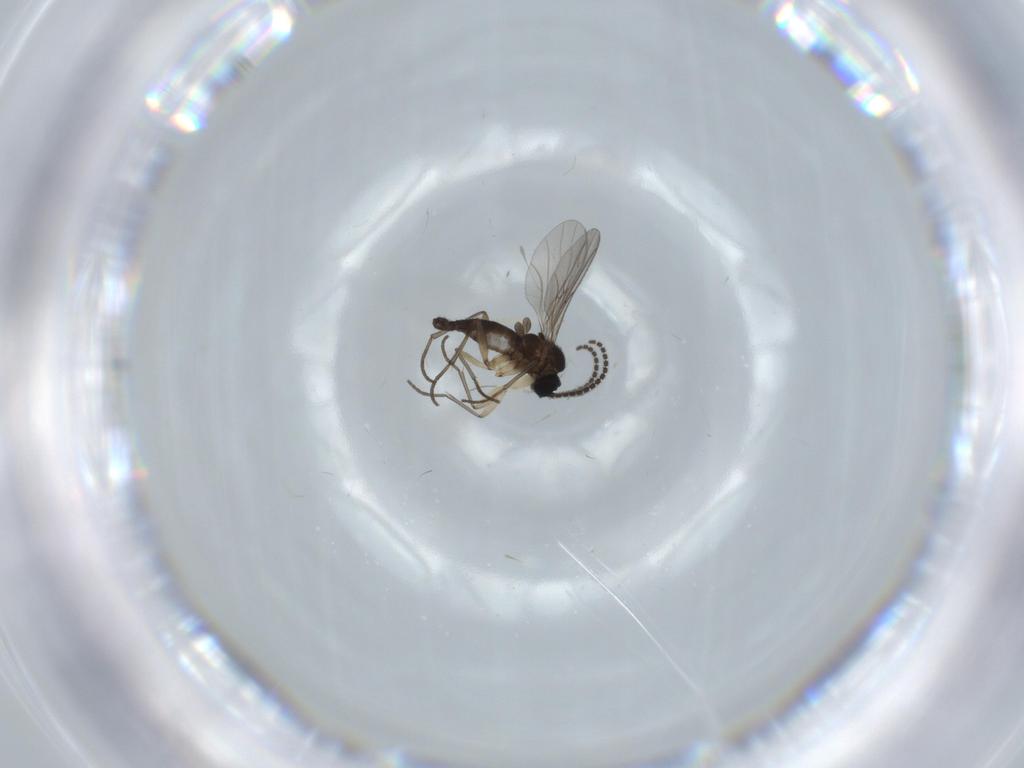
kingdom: Animalia
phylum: Arthropoda
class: Insecta
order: Diptera
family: Sciaridae
